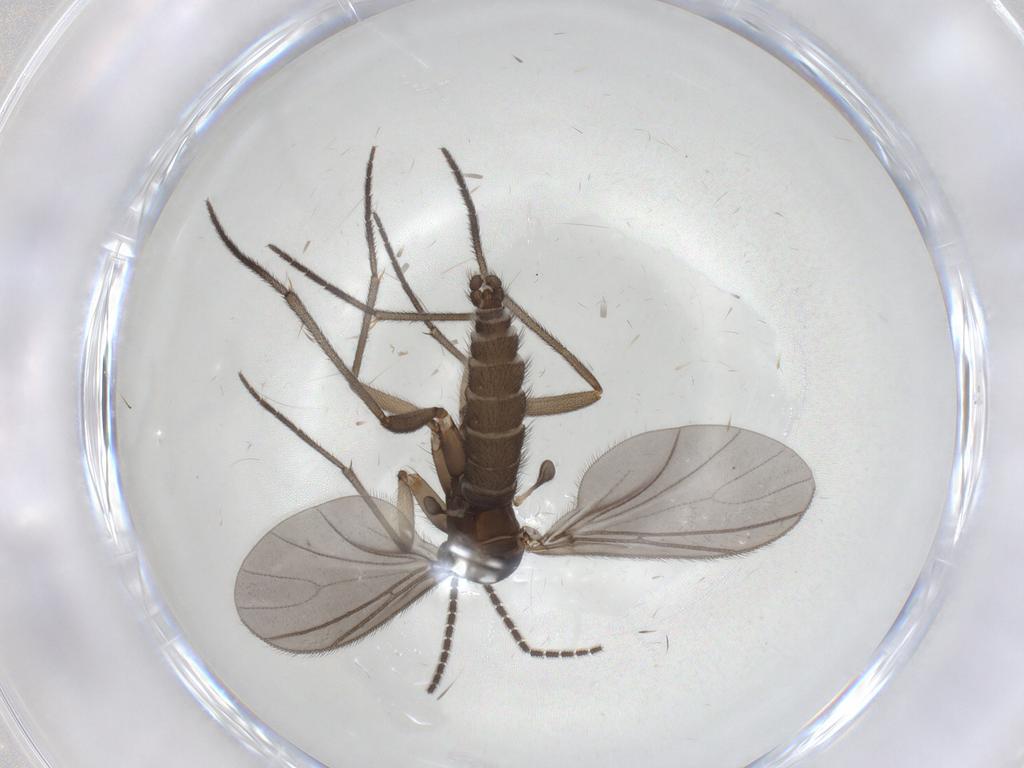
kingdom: Animalia
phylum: Arthropoda
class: Insecta
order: Diptera
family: Sciaridae
